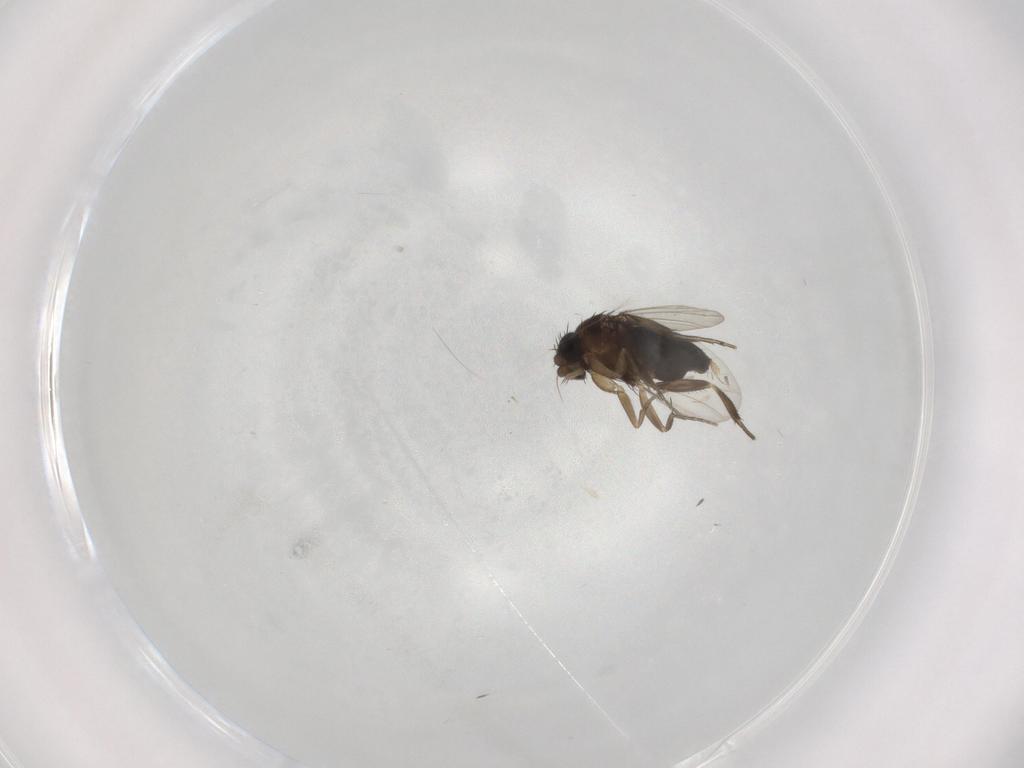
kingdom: Animalia
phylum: Arthropoda
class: Insecta
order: Diptera
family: Phoridae
